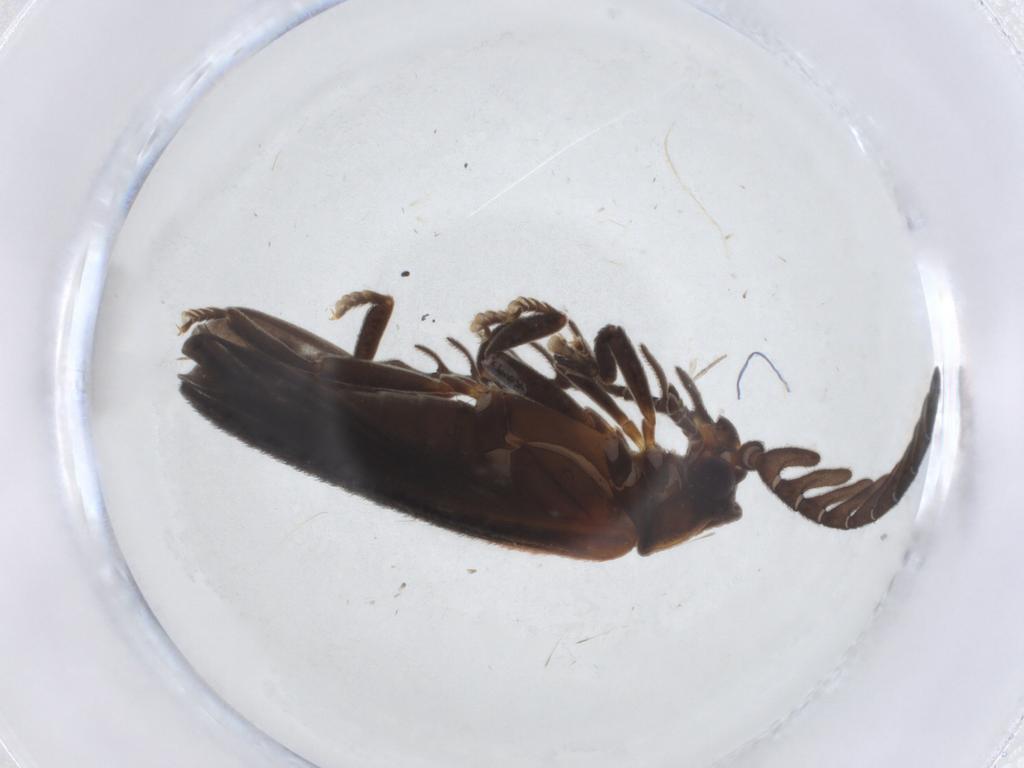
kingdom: Animalia
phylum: Arthropoda
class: Insecta
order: Coleoptera
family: Lycidae
